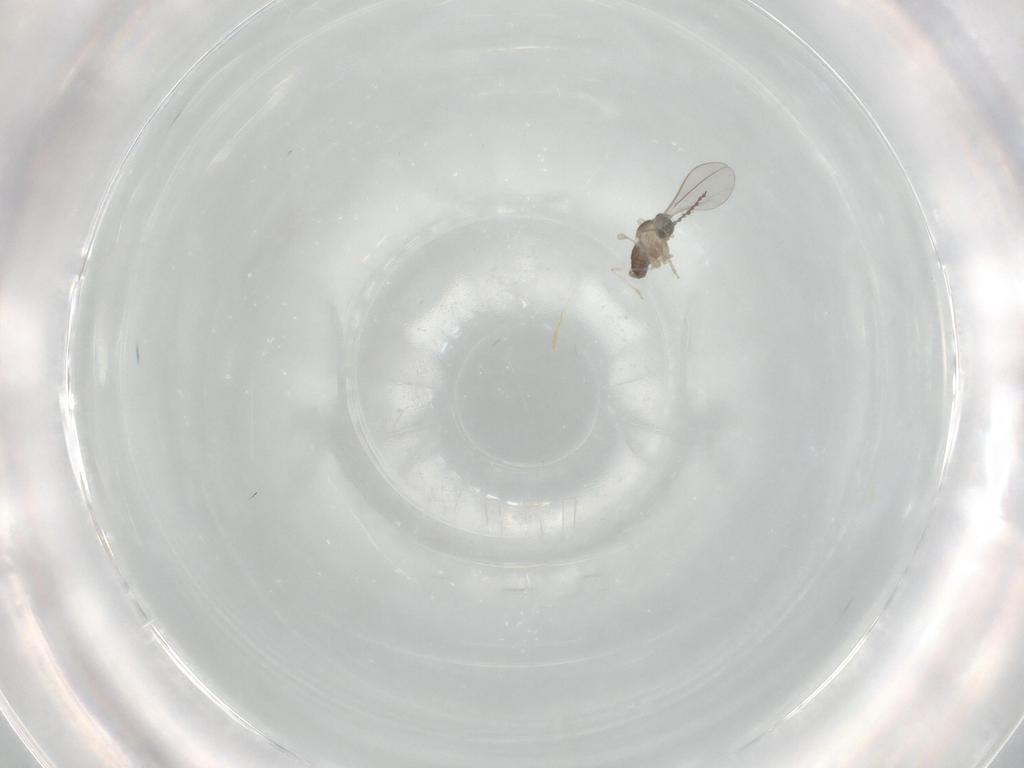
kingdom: Animalia
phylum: Arthropoda
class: Insecta
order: Diptera
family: Cecidomyiidae
